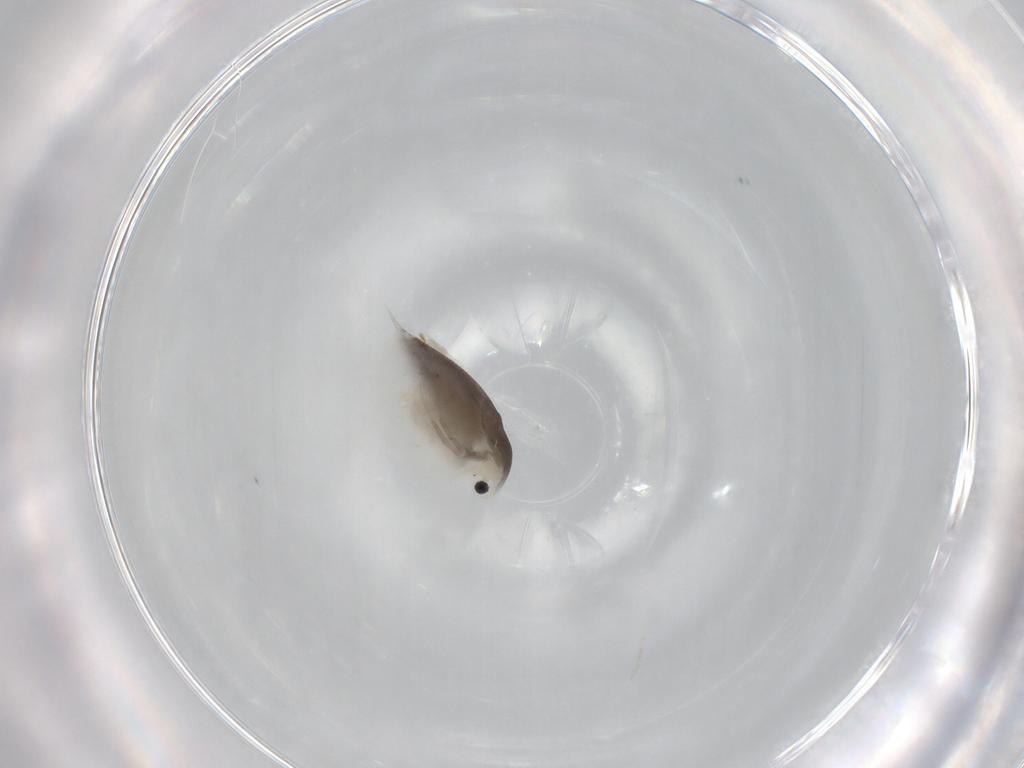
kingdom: Animalia
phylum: Arthropoda
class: Branchiopoda
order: Diplostraca
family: Daphniidae
